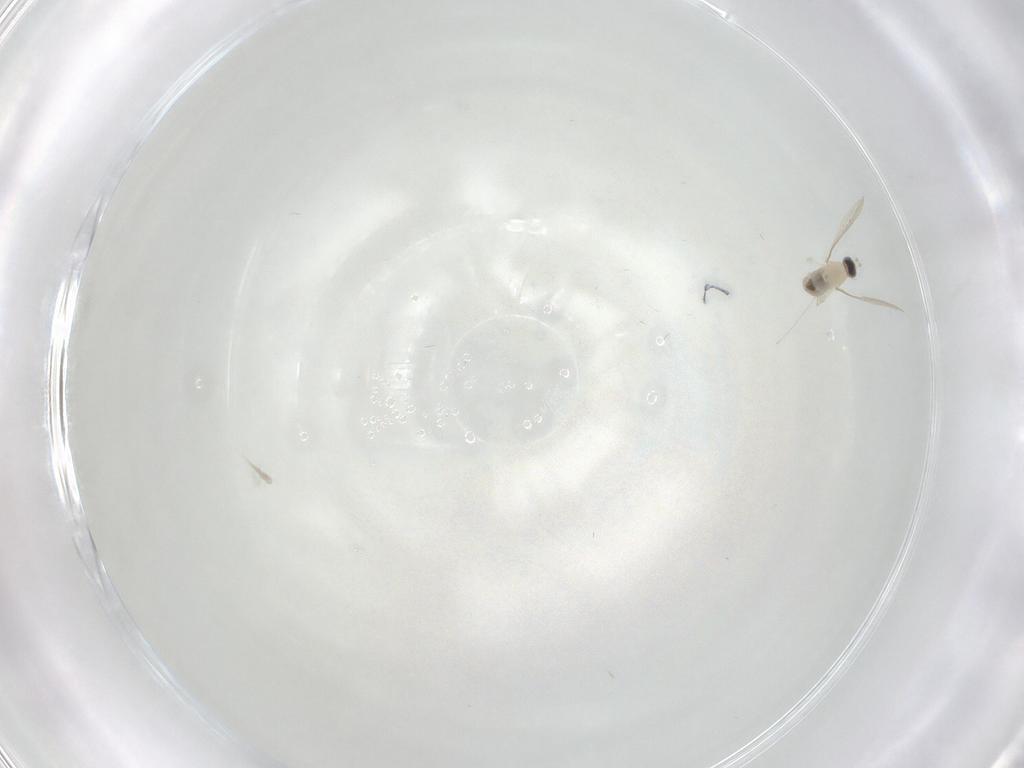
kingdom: Animalia
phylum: Arthropoda
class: Insecta
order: Diptera
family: Cecidomyiidae
